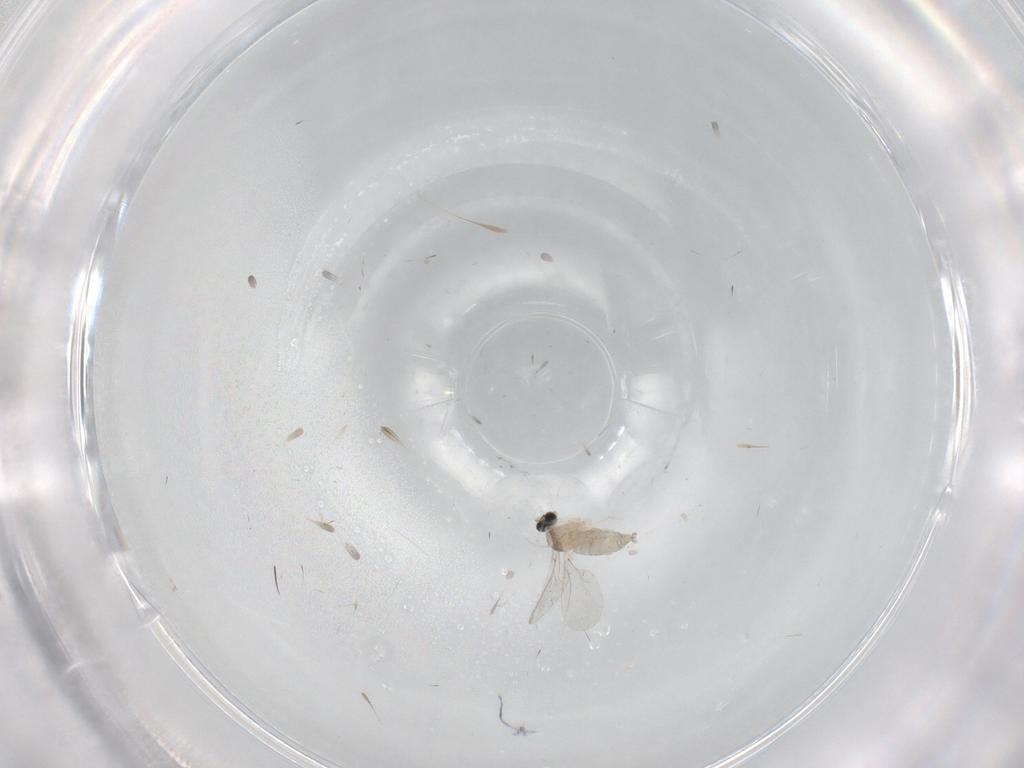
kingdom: Animalia
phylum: Arthropoda
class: Insecta
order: Diptera
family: Cecidomyiidae
